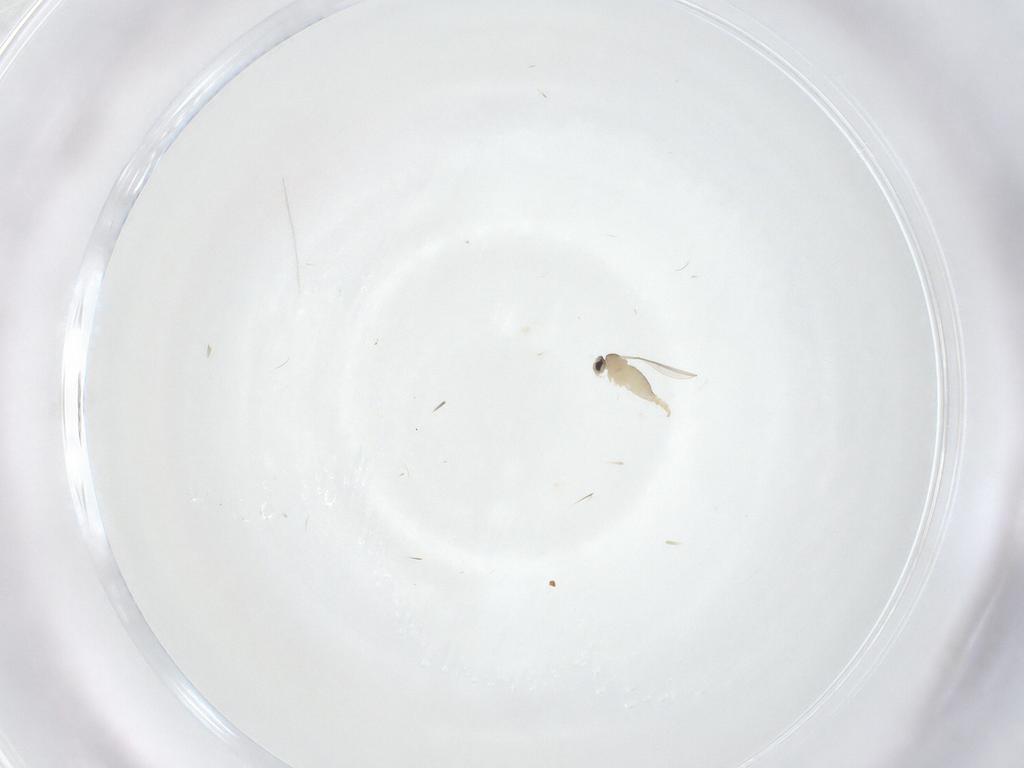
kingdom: Animalia
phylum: Arthropoda
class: Insecta
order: Diptera
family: Cecidomyiidae
